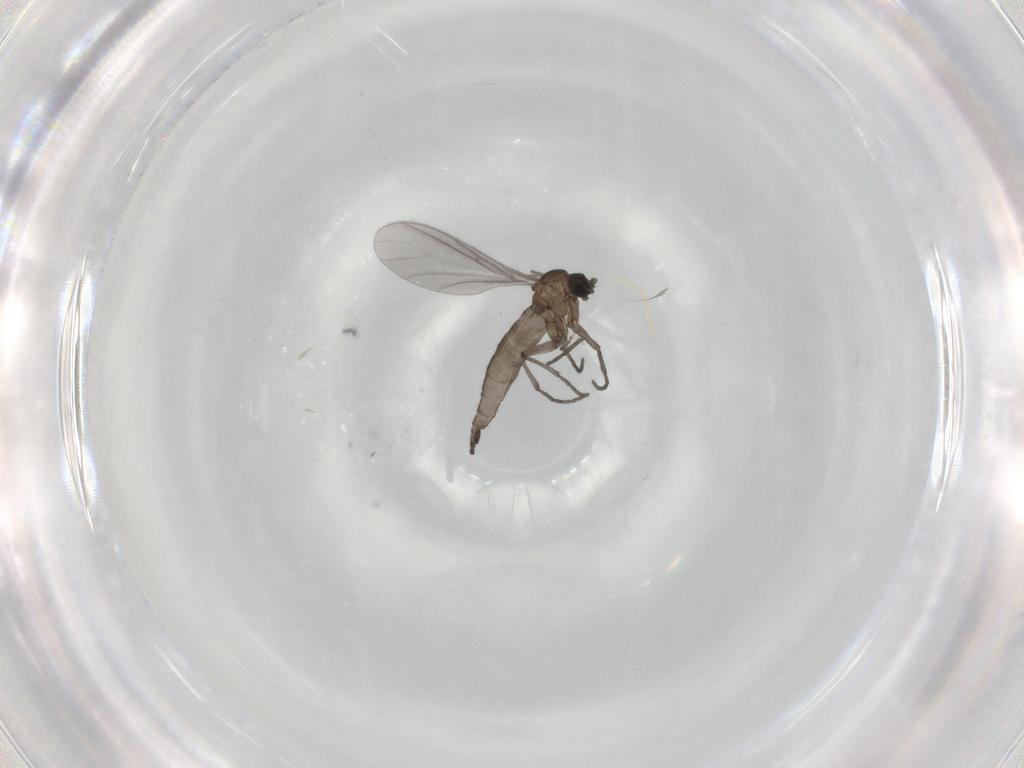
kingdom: Animalia
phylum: Arthropoda
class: Insecta
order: Diptera
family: Sciaridae
